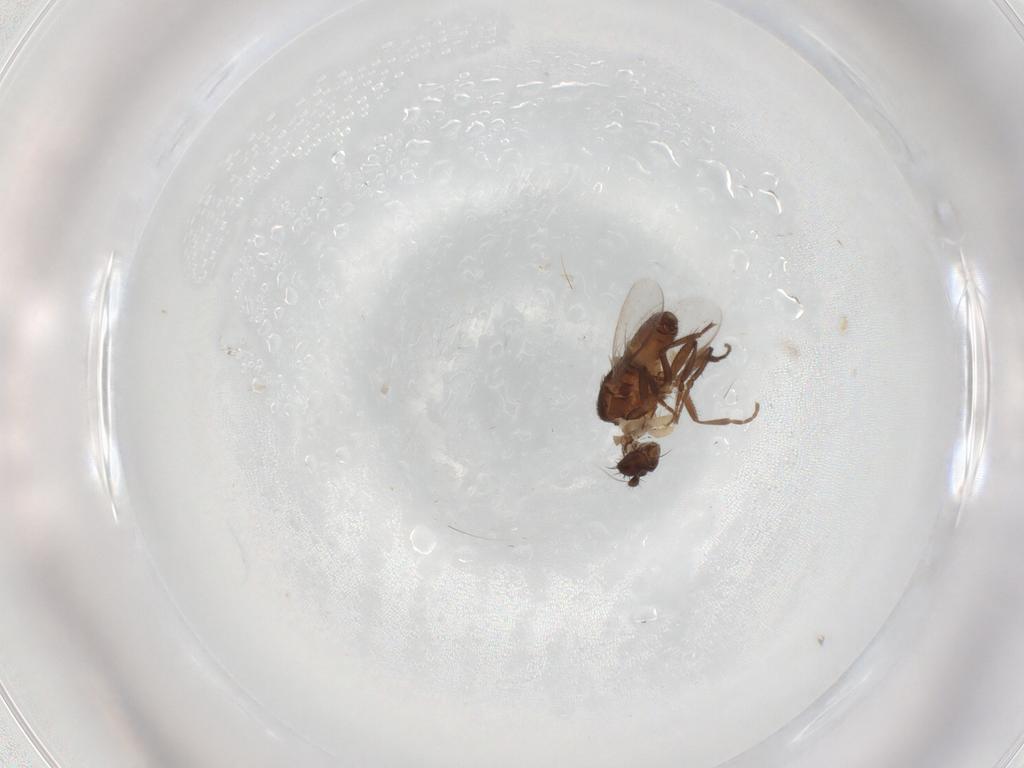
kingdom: Animalia
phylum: Arthropoda
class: Insecta
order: Diptera
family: Sphaeroceridae
